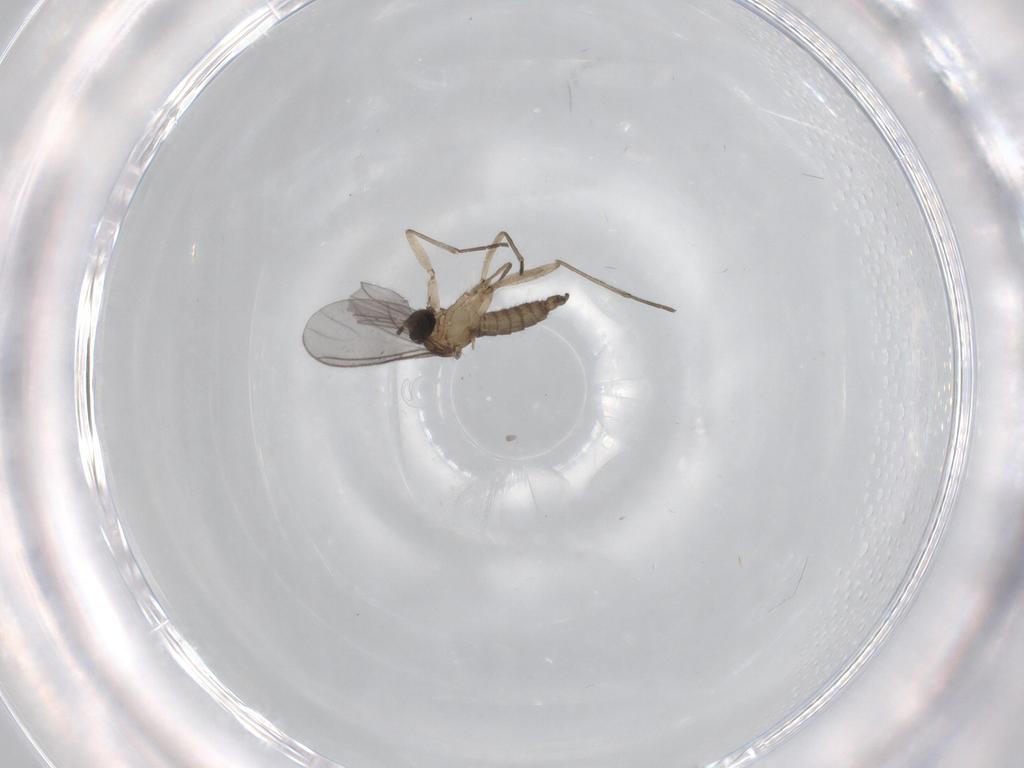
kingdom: Animalia
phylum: Arthropoda
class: Insecta
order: Diptera
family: Sciaridae
